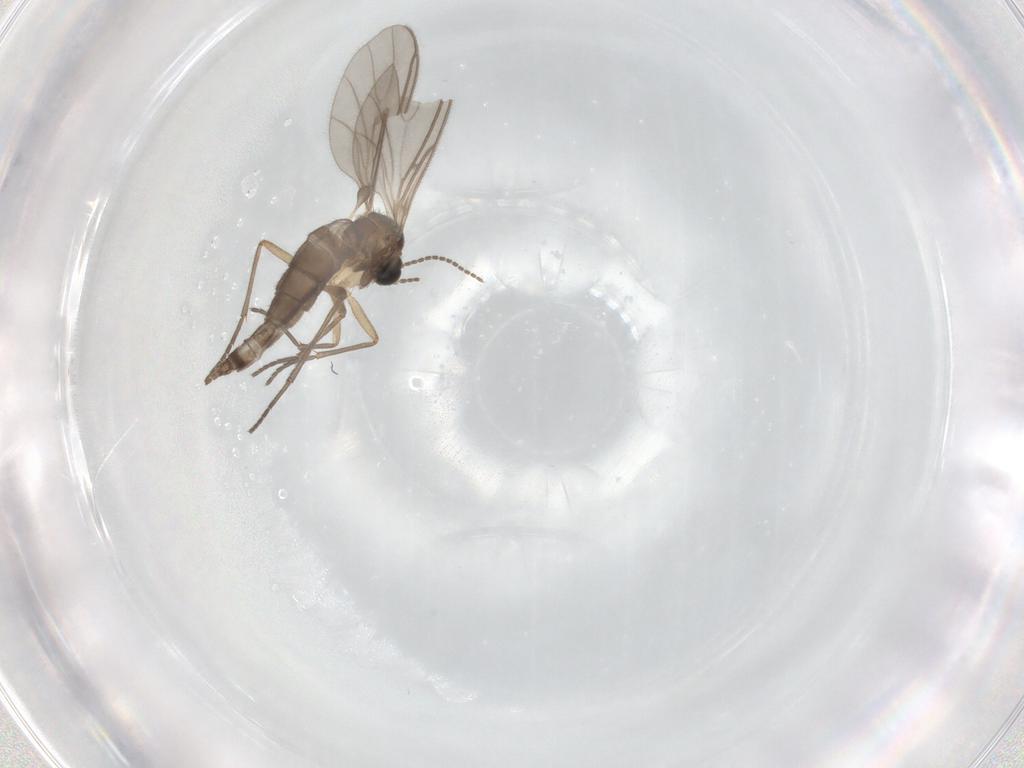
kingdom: Animalia
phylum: Arthropoda
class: Insecta
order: Diptera
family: Sciaridae
